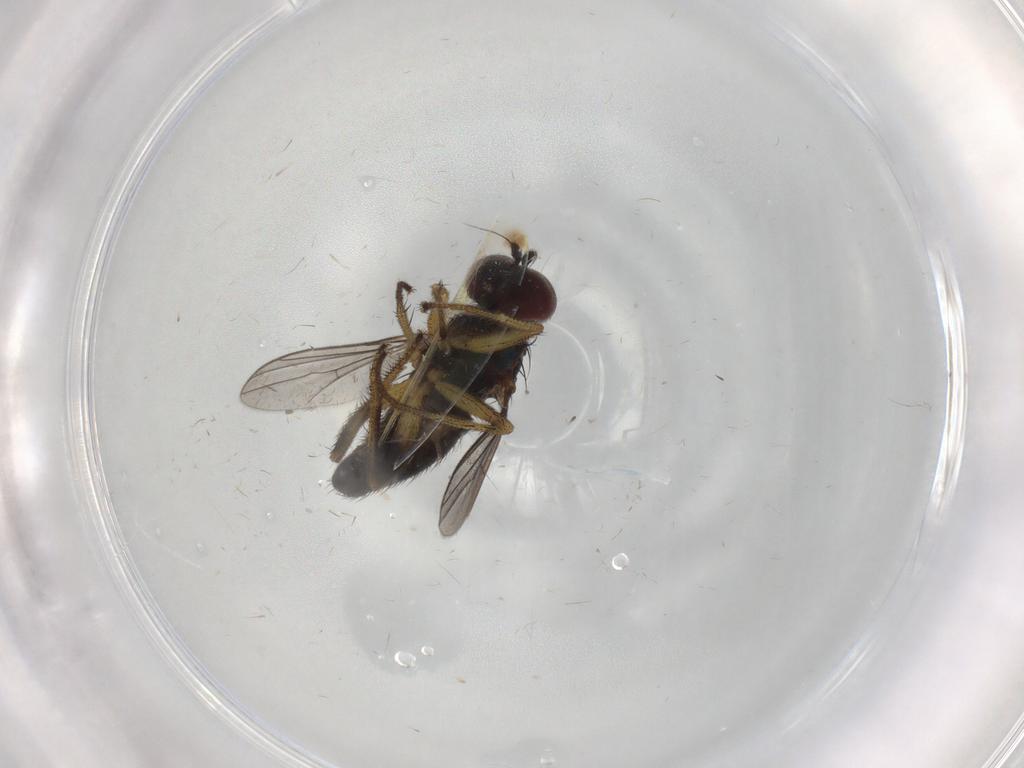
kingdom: Animalia
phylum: Arthropoda
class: Insecta
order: Diptera
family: Dolichopodidae
